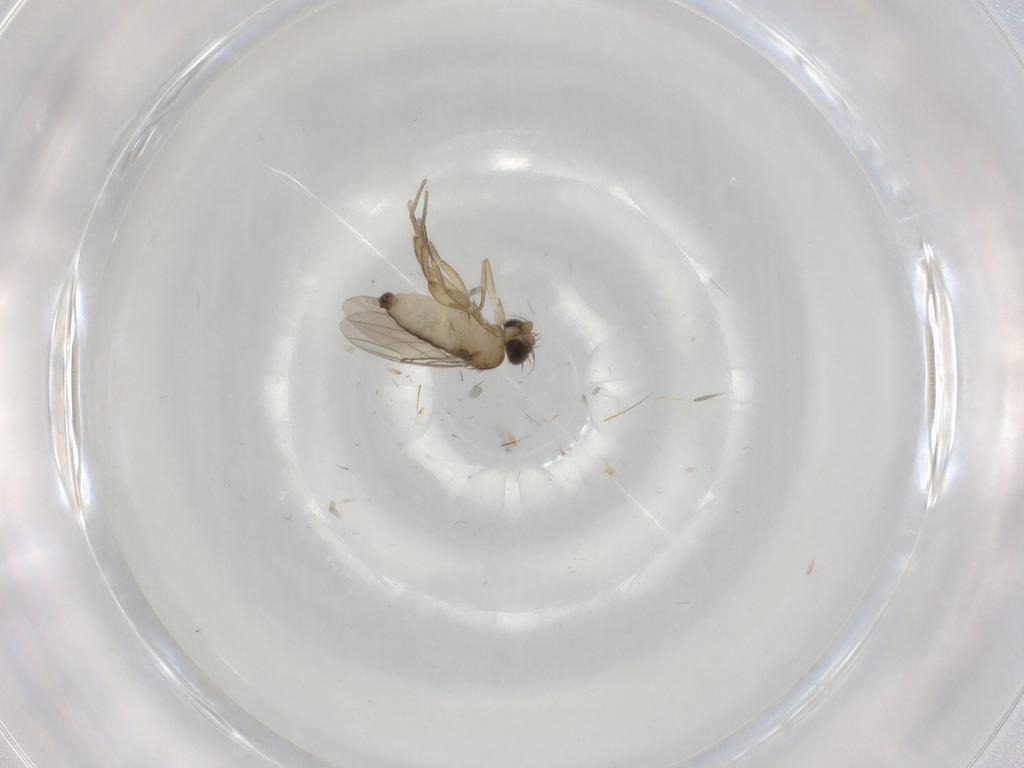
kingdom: Animalia
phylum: Arthropoda
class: Insecta
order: Diptera
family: Phoridae
